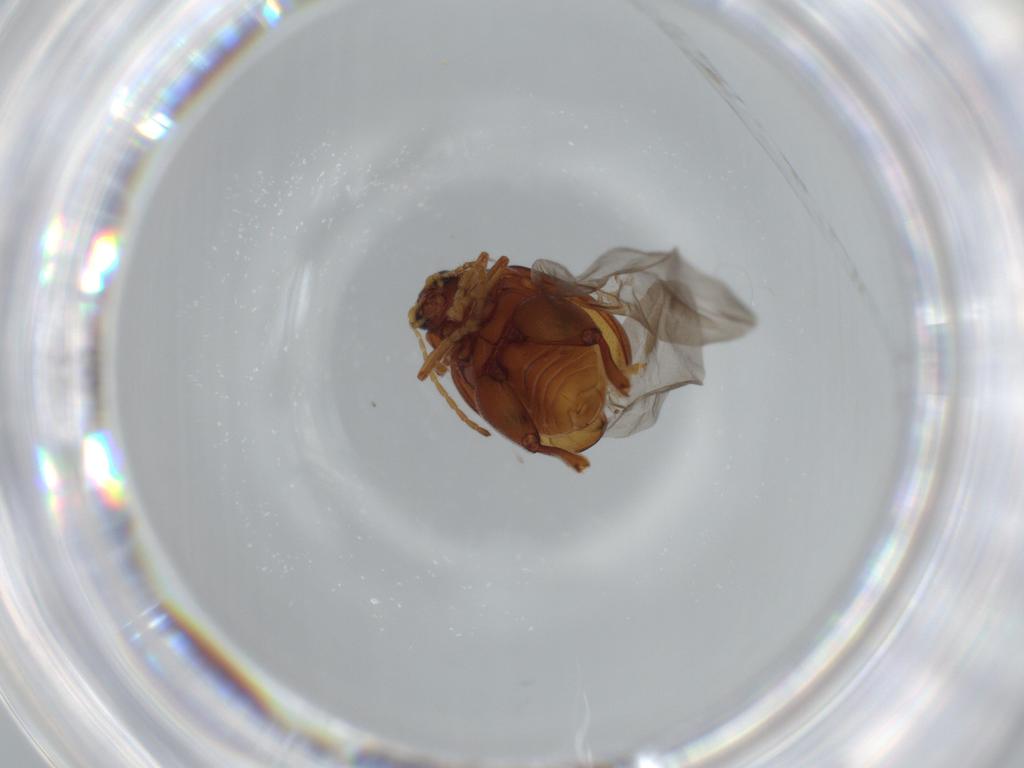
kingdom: Animalia
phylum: Arthropoda
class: Insecta
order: Coleoptera
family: Chrysomelidae
